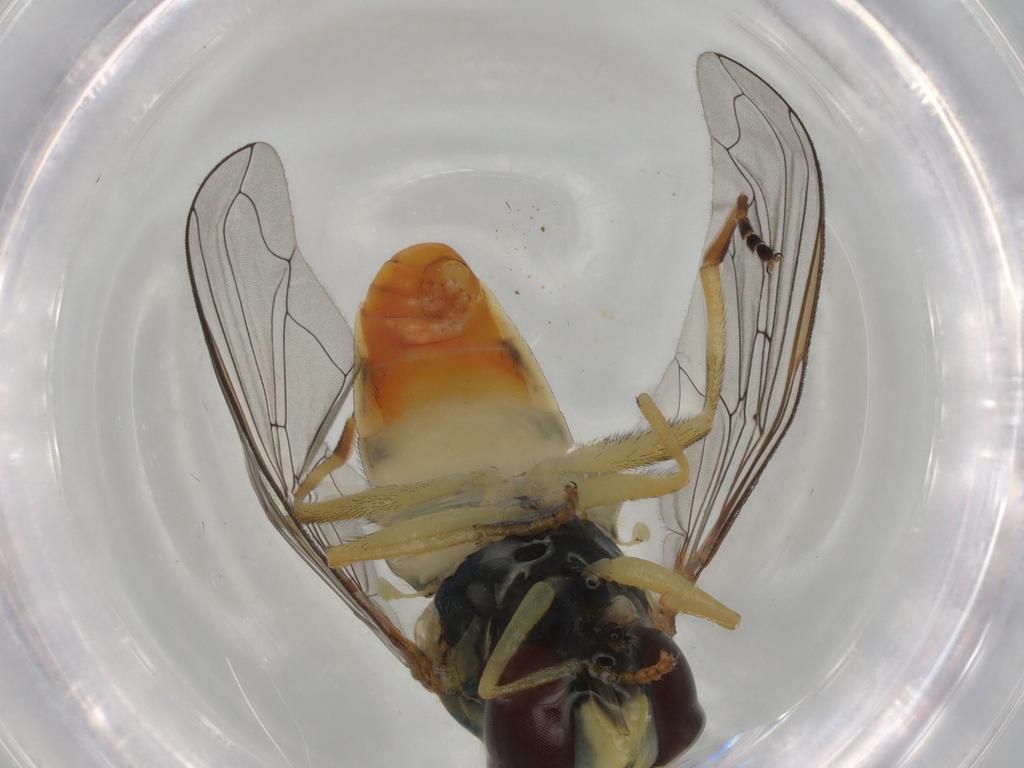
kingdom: Animalia
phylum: Arthropoda
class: Insecta
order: Diptera
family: Syrphidae
